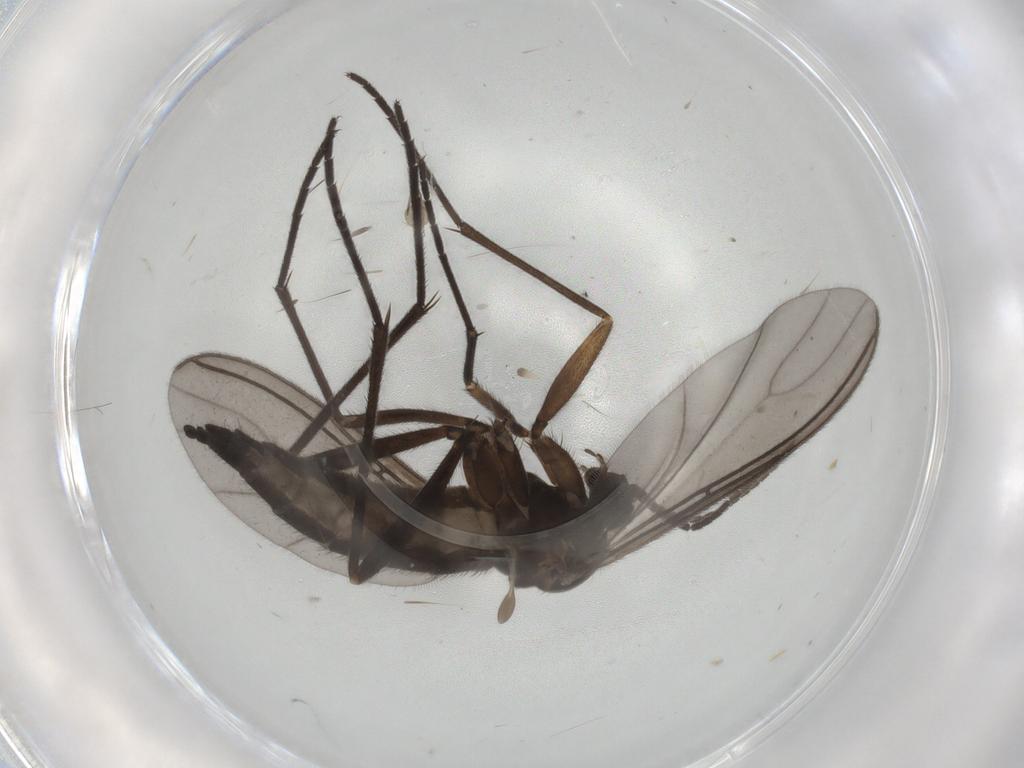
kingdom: Animalia
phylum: Arthropoda
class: Insecta
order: Diptera
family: Sciaridae
